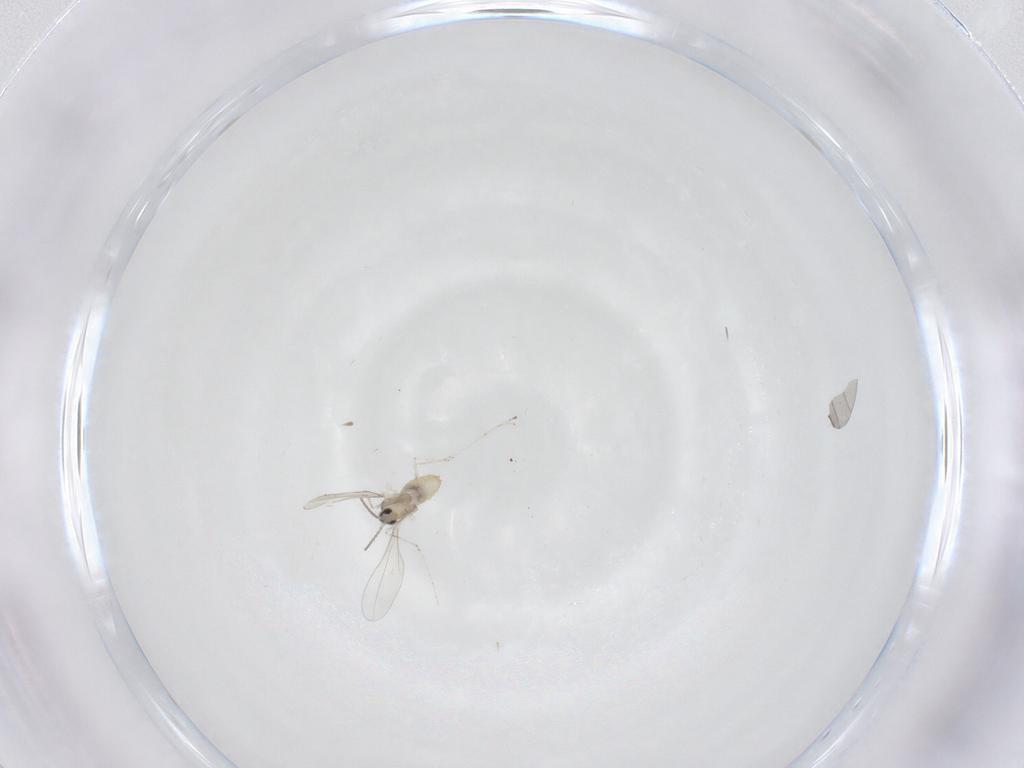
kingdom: Animalia
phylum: Arthropoda
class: Insecta
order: Diptera
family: Cecidomyiidae
